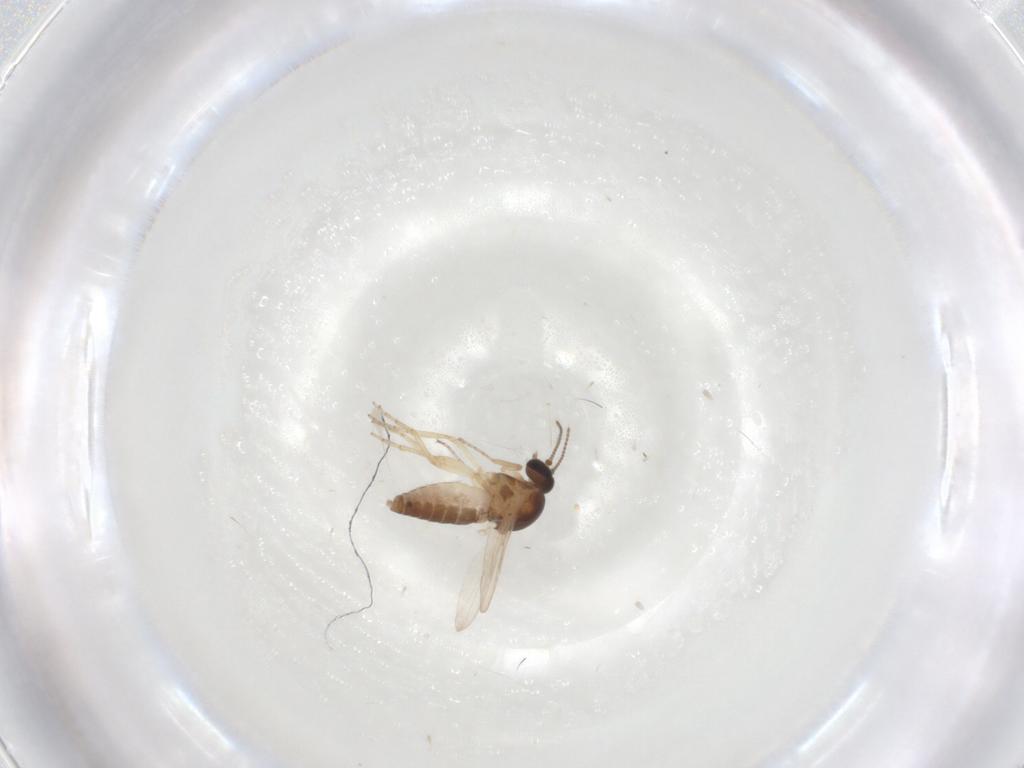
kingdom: Animalia
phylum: Arthropoda
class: Insecta
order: Diptera
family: Ceratopogonidae
